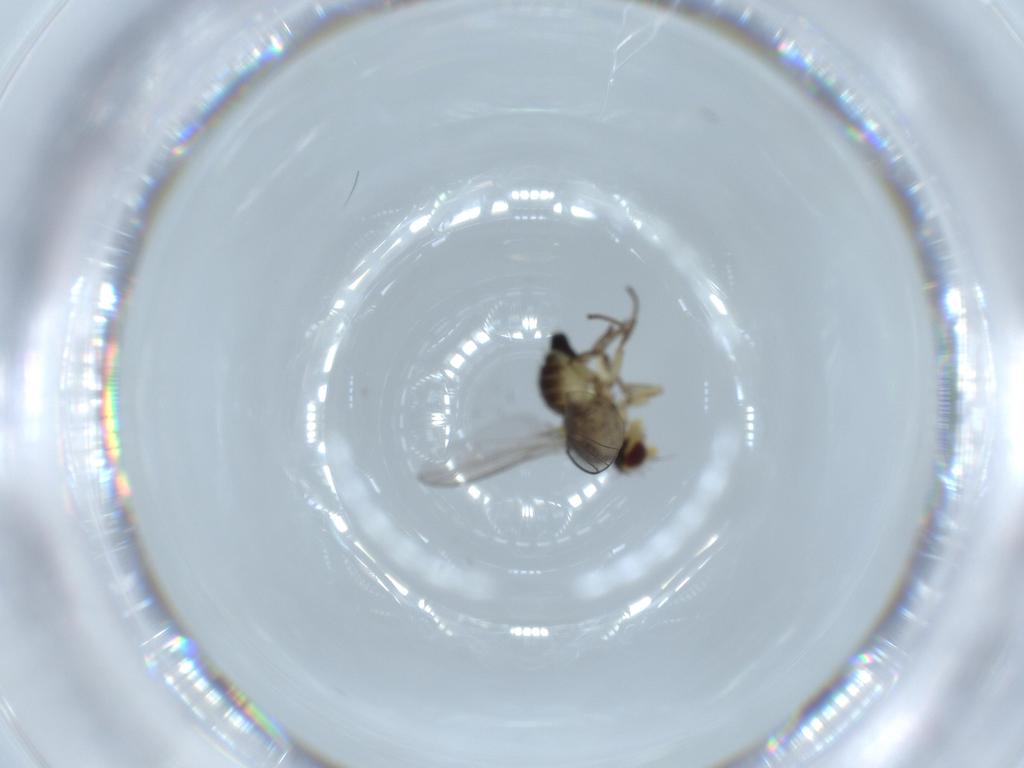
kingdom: Animalia
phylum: Arthropoda
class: Insecta
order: Diptera
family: Agromyzidae
